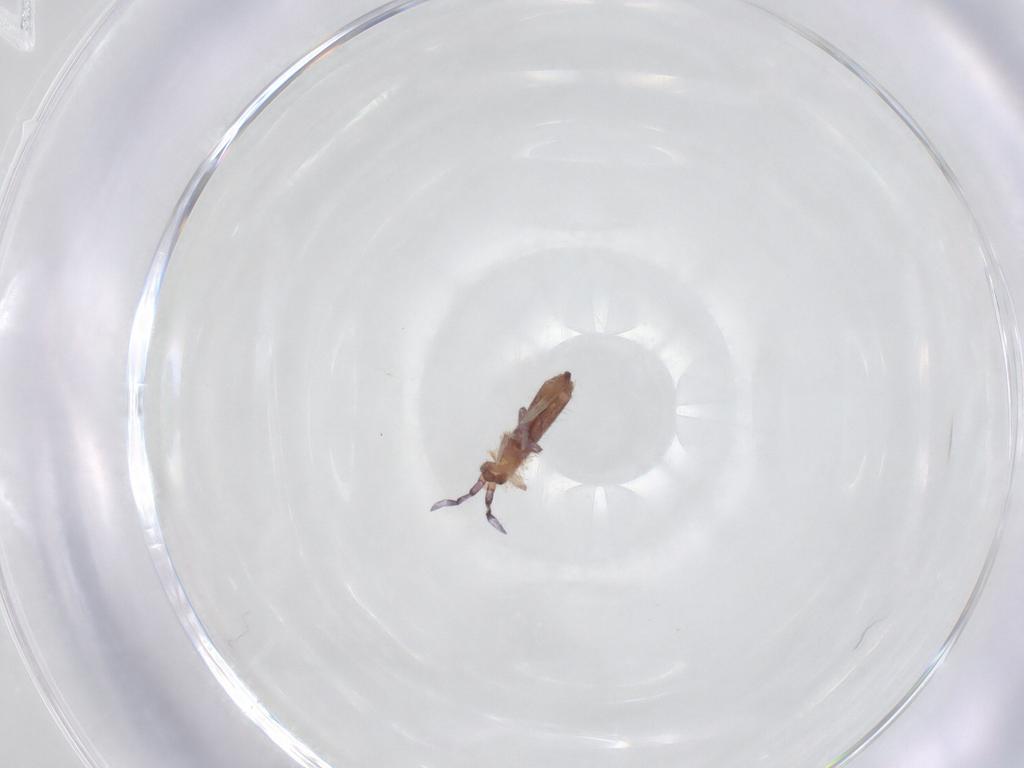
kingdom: Animalia
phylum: Arthropoda
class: Collembola
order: Entomobryomorpha
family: Entomobryidae
